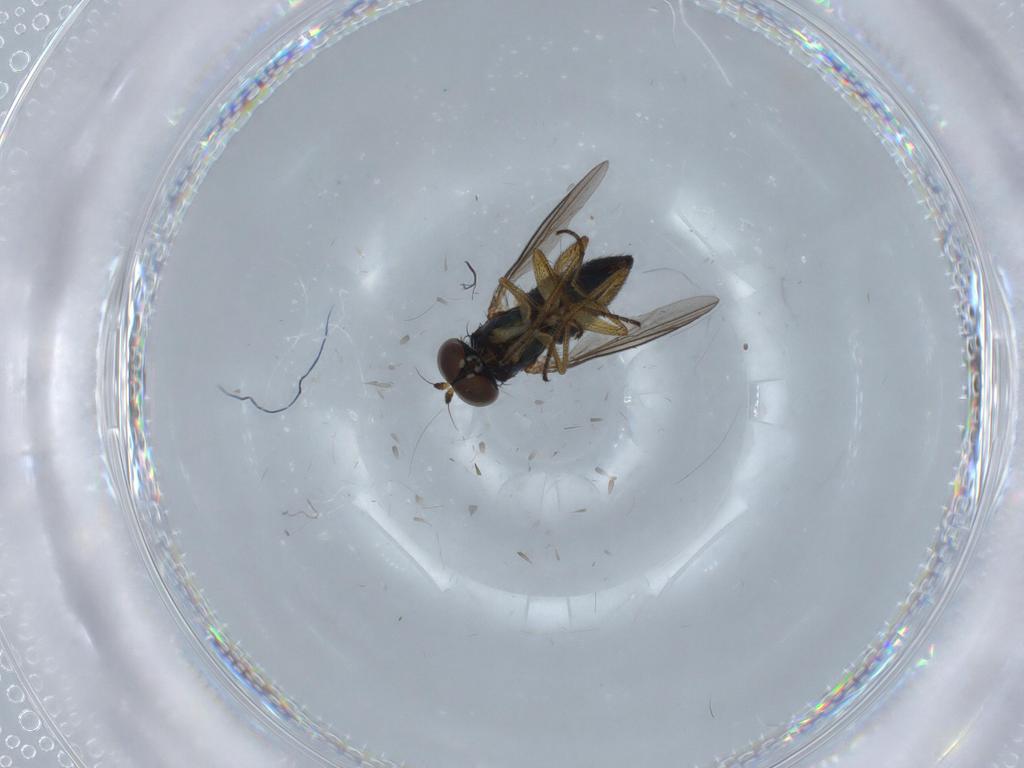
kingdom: Animalia
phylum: Arthropoda
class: Insecta
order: Diptera
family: Dolichopodidae
